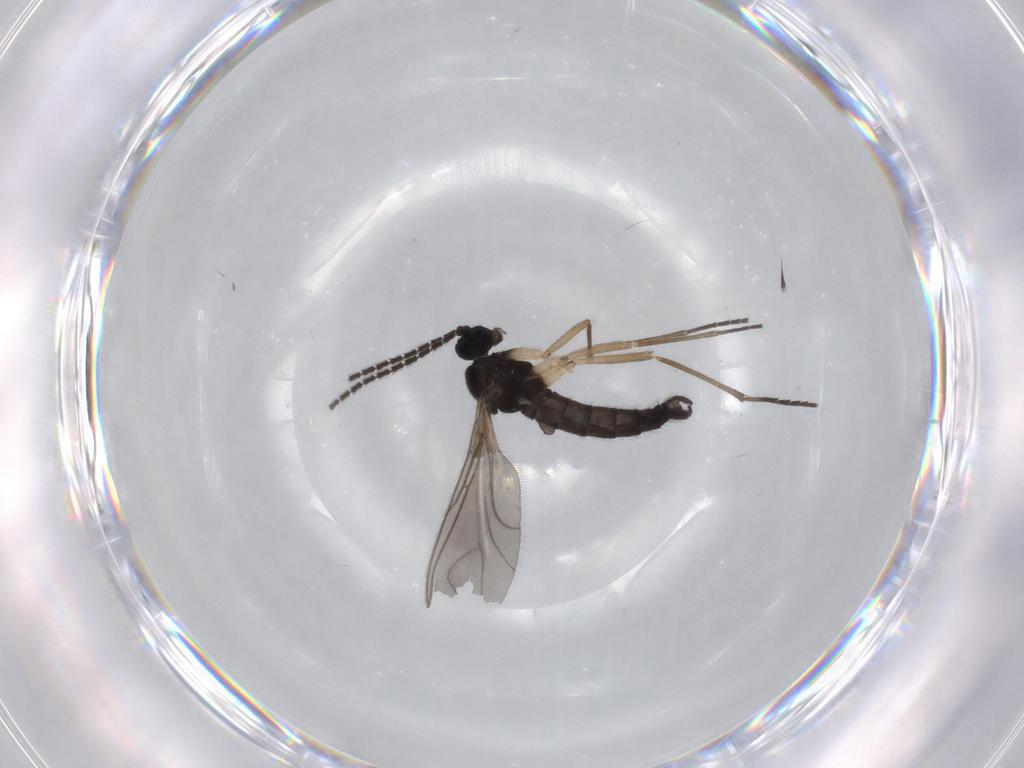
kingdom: Animalia
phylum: Arthropoda
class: Insecta
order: Diptera
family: Sciaridae
